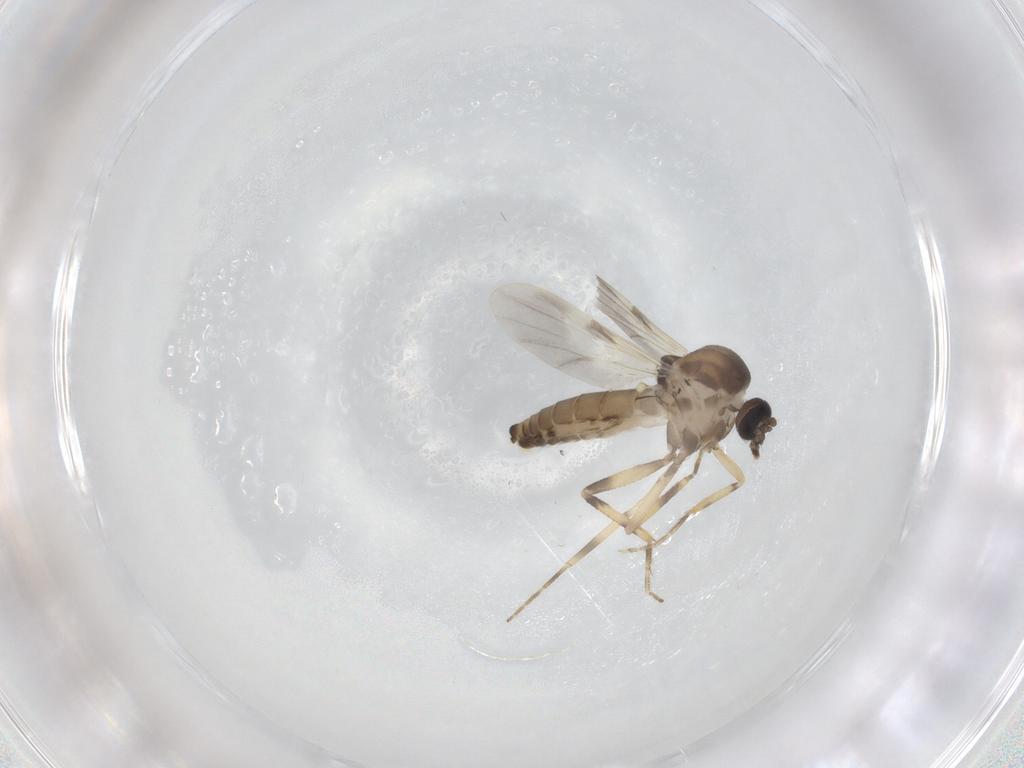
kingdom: Animalia
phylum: Arthropoda
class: Insecta
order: Diptera
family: Ceratopogonidae
